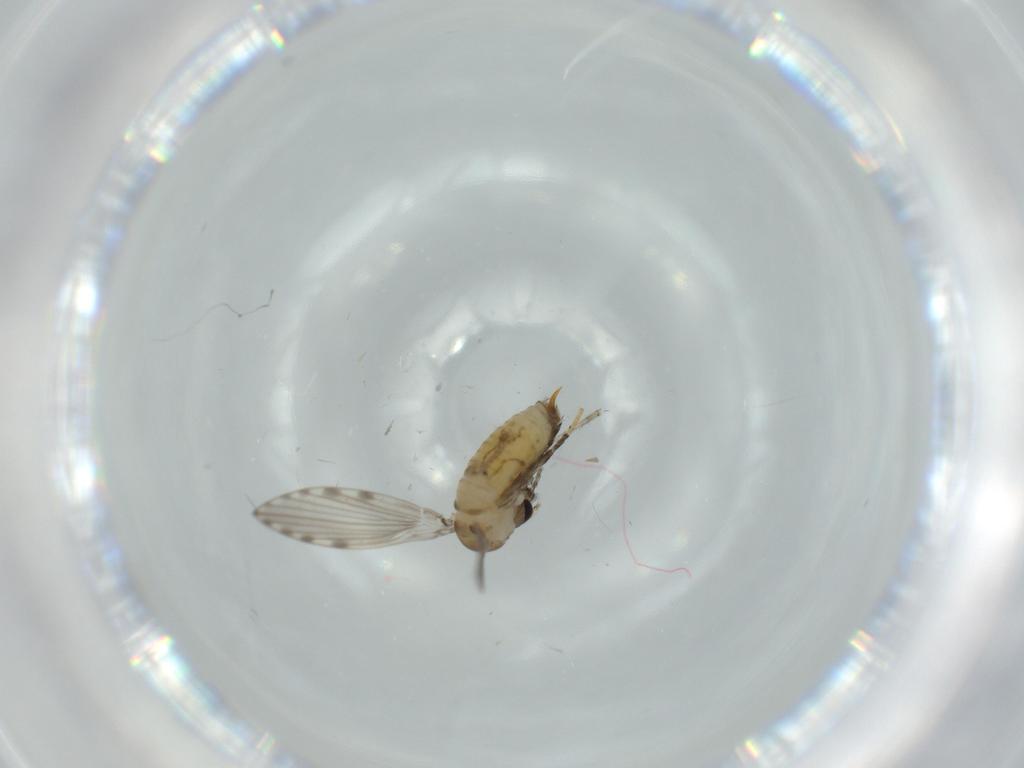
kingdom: Animalia
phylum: Arthropoda
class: Insecta
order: Diptera
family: Psychodidae
